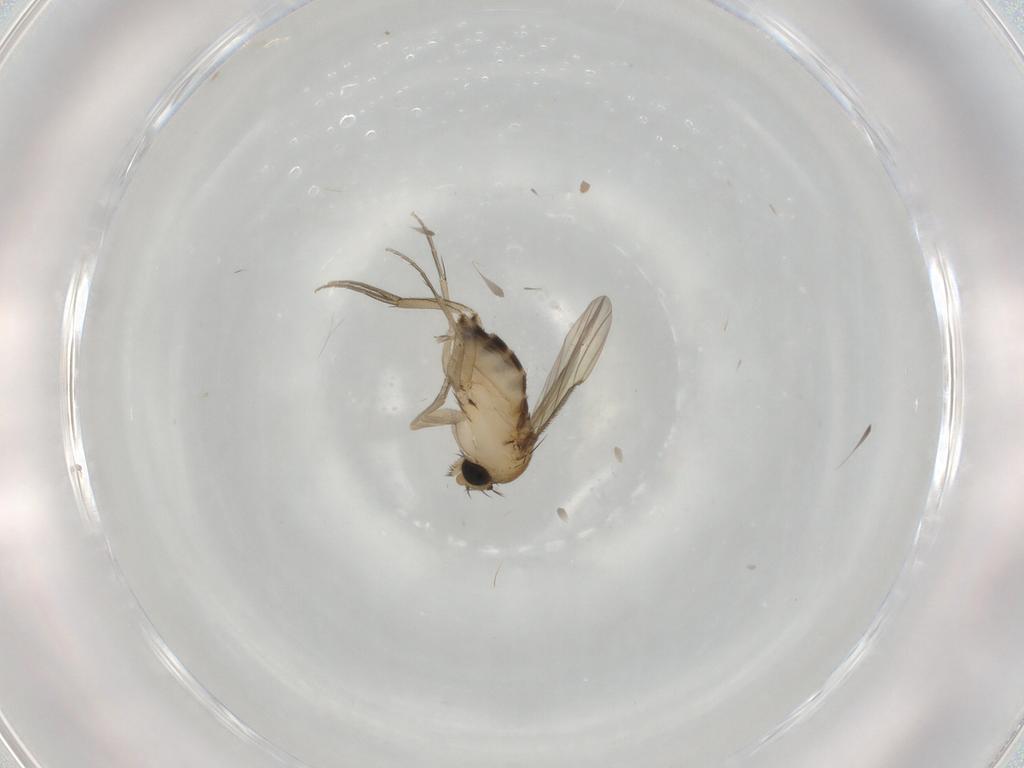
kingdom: Animalia
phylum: Arthropoda
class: Insecta
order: Diptera
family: Phoridae
